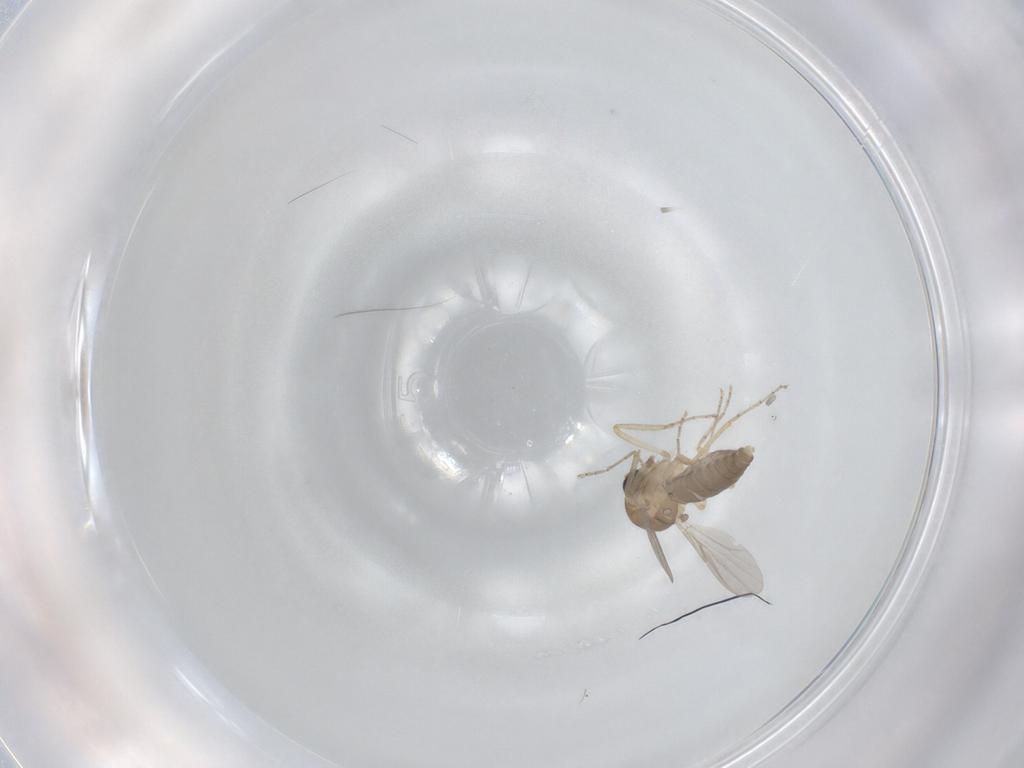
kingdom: Animalia
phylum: Arthropoda
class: Insecta
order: Diptera
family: Ceratopogonidae
